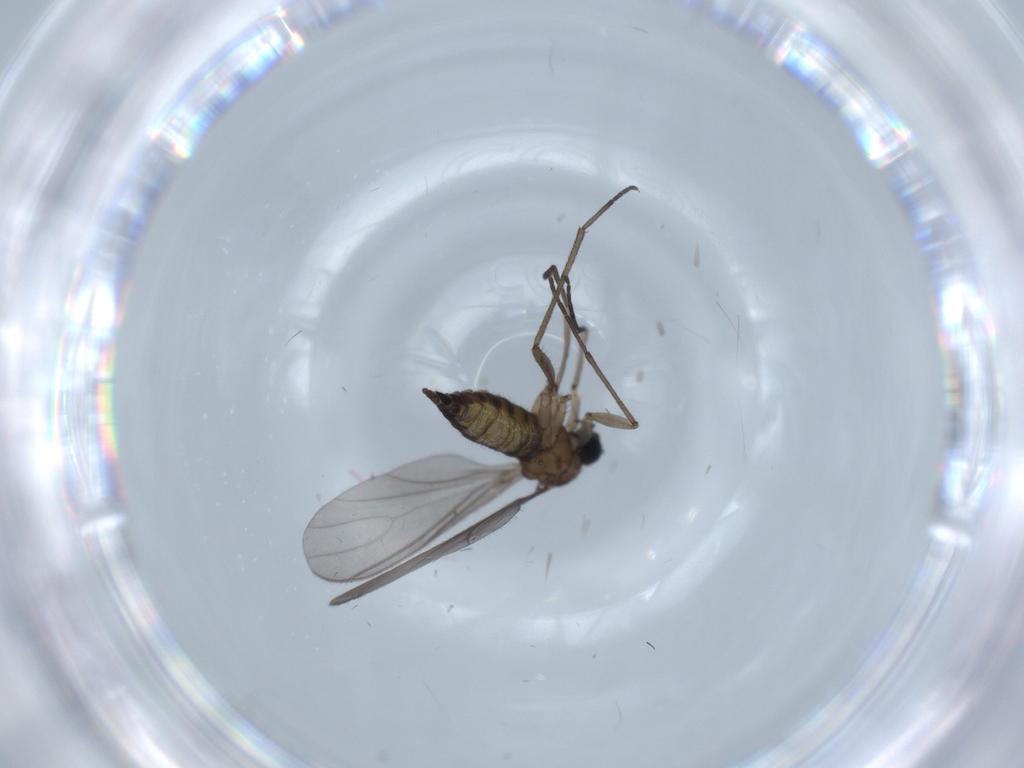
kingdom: Animalia
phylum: Arthropoda
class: Insecta
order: Diptera
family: Sciaridae
